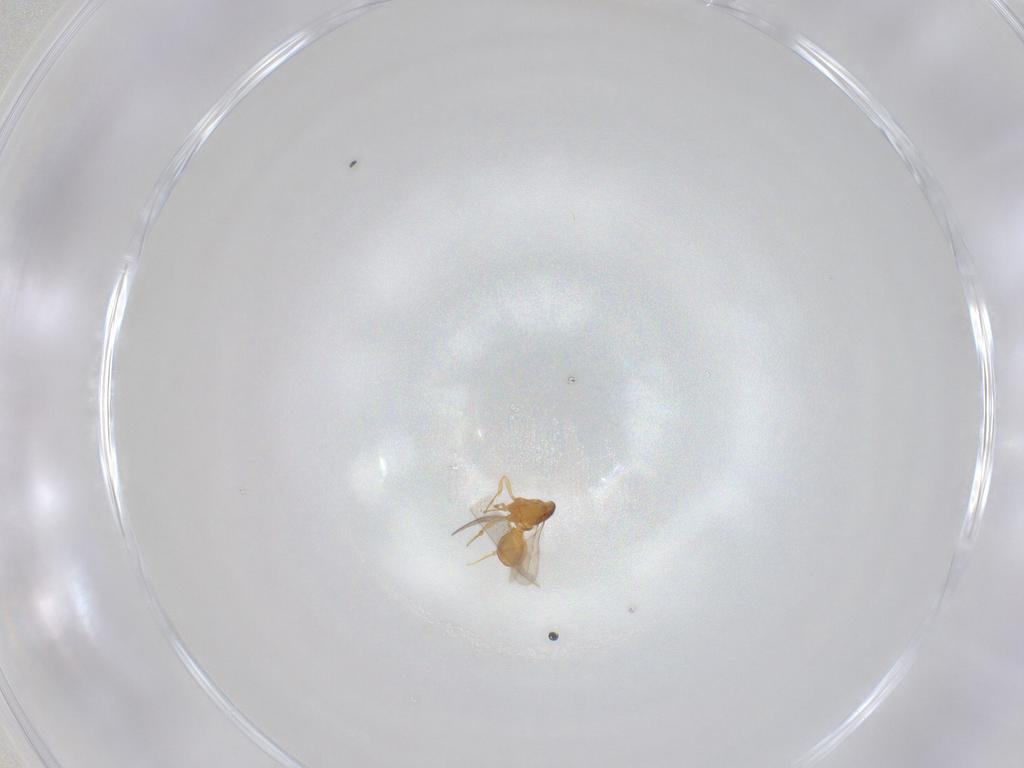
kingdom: Animalia
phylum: Arthropoda
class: Insecta
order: Hymenoptera
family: Scelionidae
